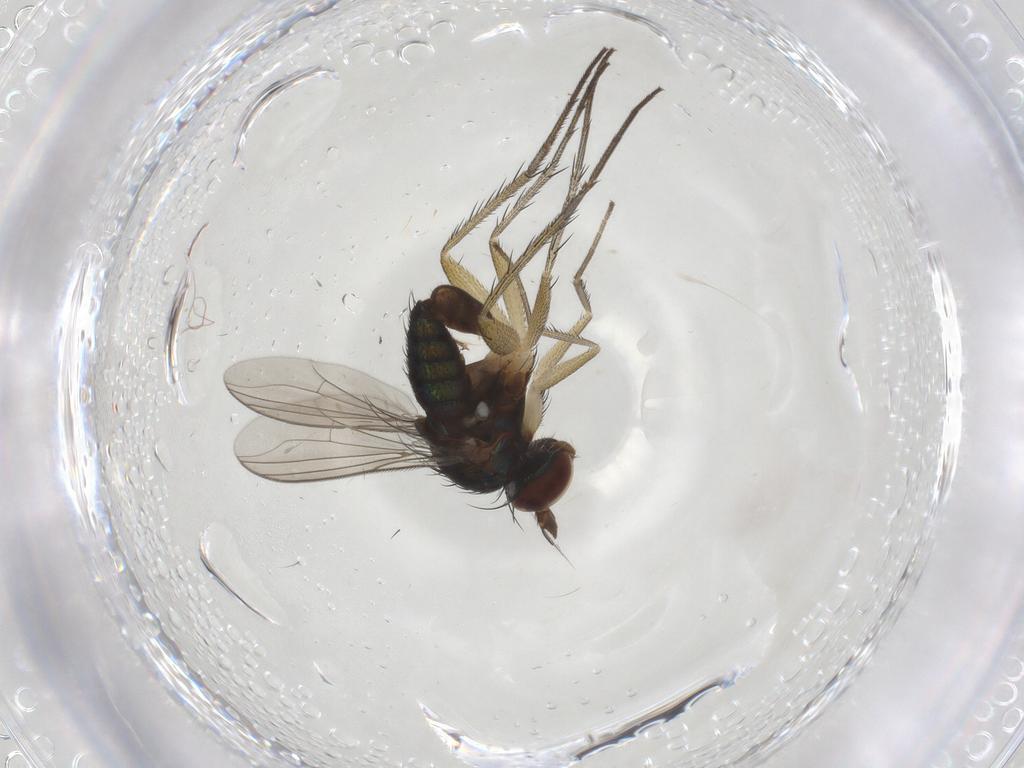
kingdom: Animalia
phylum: Arthropoda
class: Insecta
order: Diptera
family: Dolichopodidae
